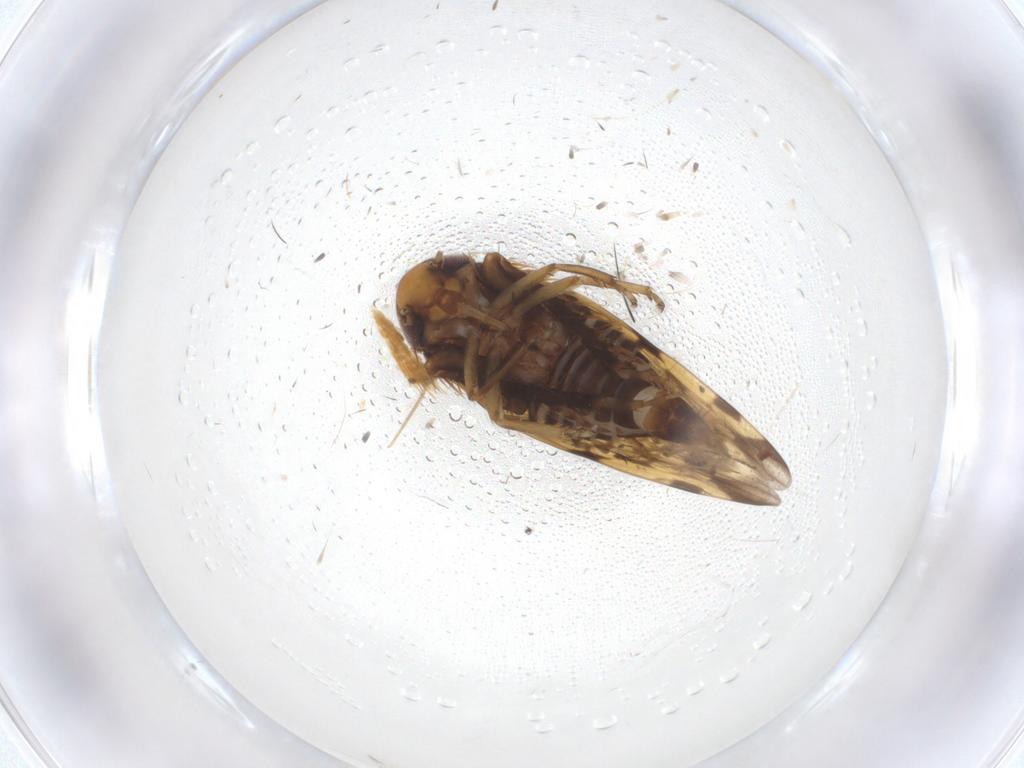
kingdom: Animalia
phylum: Arthropoda
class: Insecta
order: Hemiptera
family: Cicadellidae
